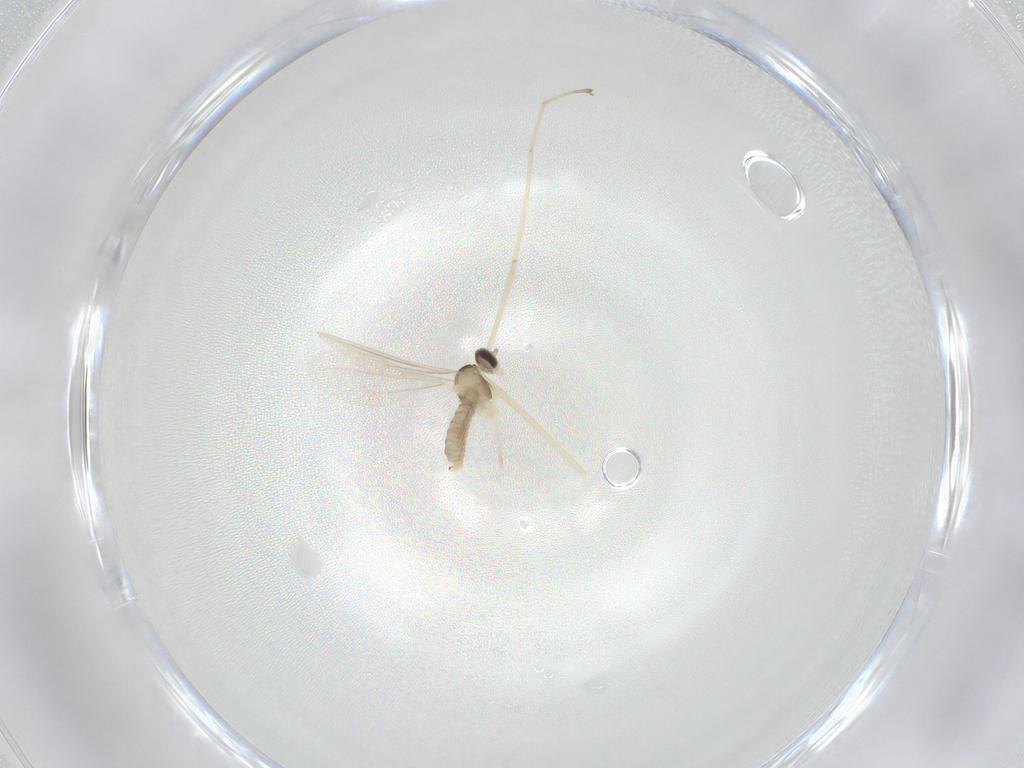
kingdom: Animalia
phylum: Arthropoda
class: Insecta
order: Diptera
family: Cecidomyiidae
